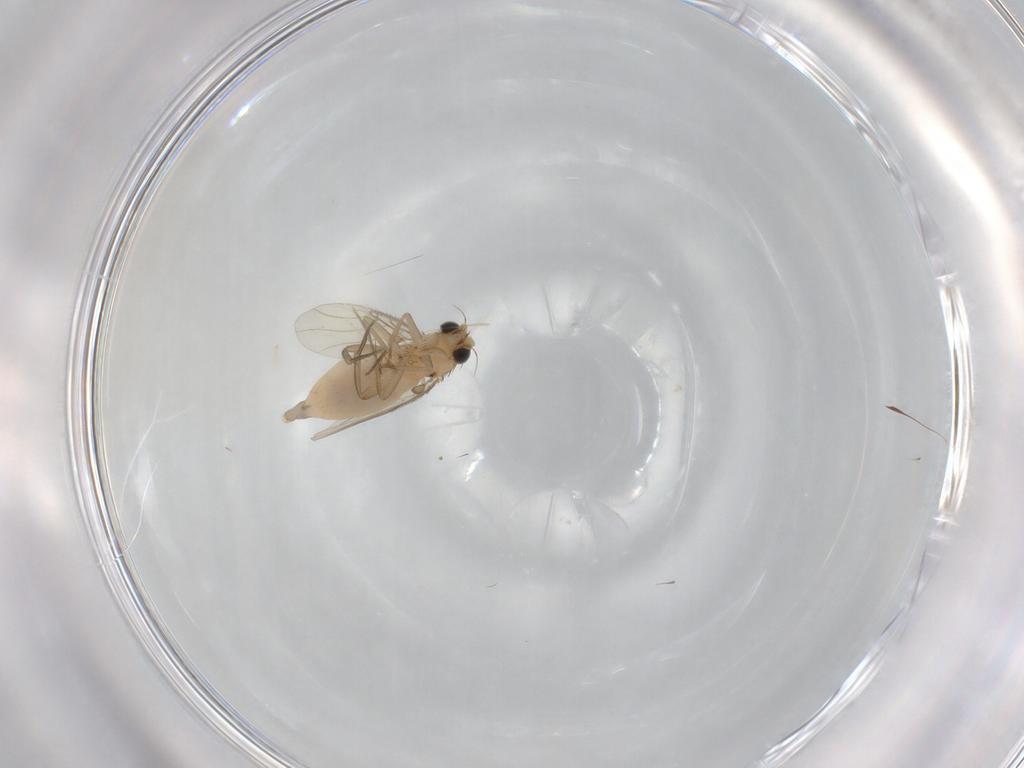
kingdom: Animalia
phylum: Arthropoda
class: Insecta
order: Diptera
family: Phoridae
